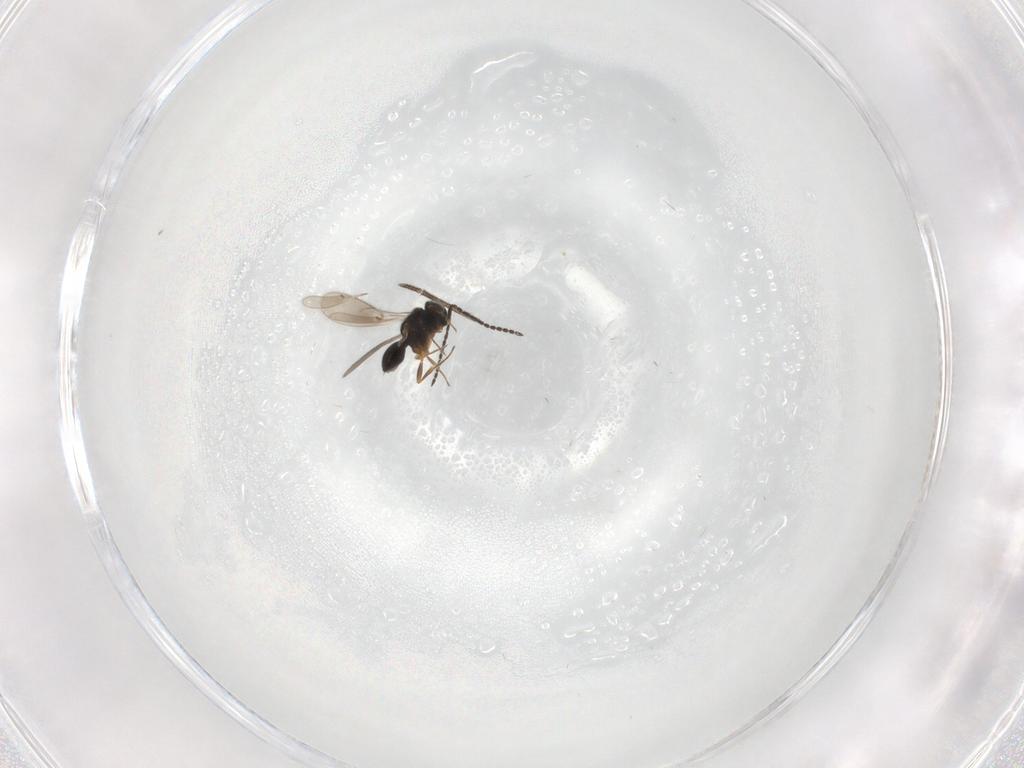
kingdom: Animalia
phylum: Arthropoda
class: Insecta
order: Hymenoptera
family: Scelionidae
